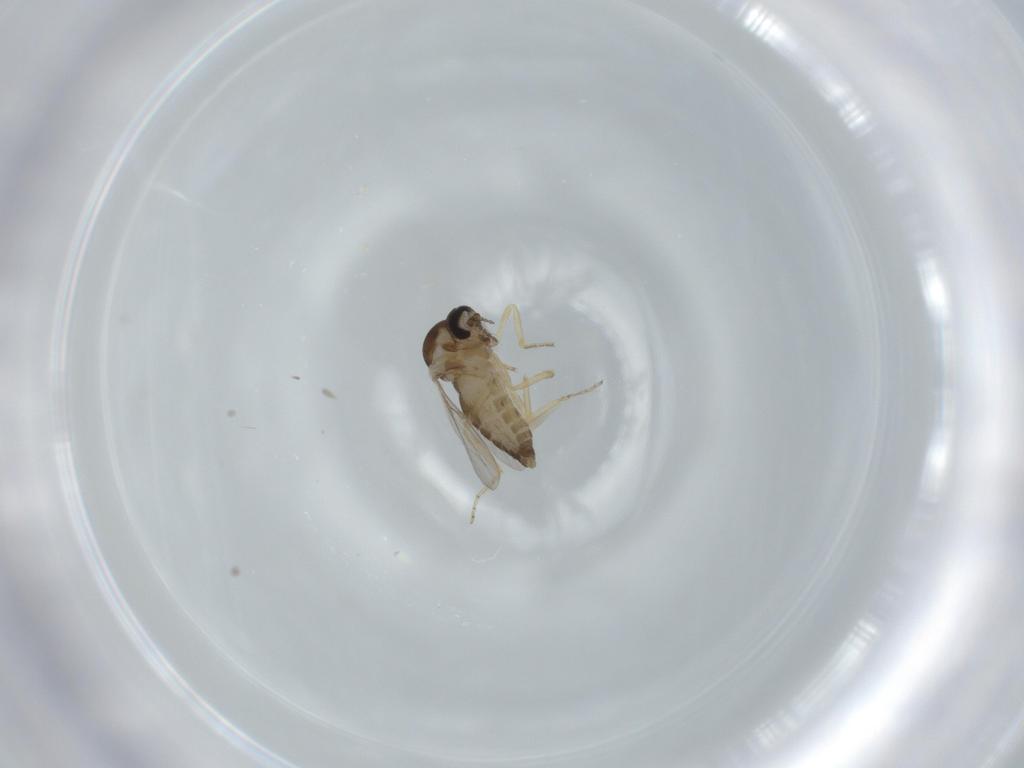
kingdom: Animalia
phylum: Arthropoda
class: Insecta
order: Diptera
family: Ceratopogonidae
